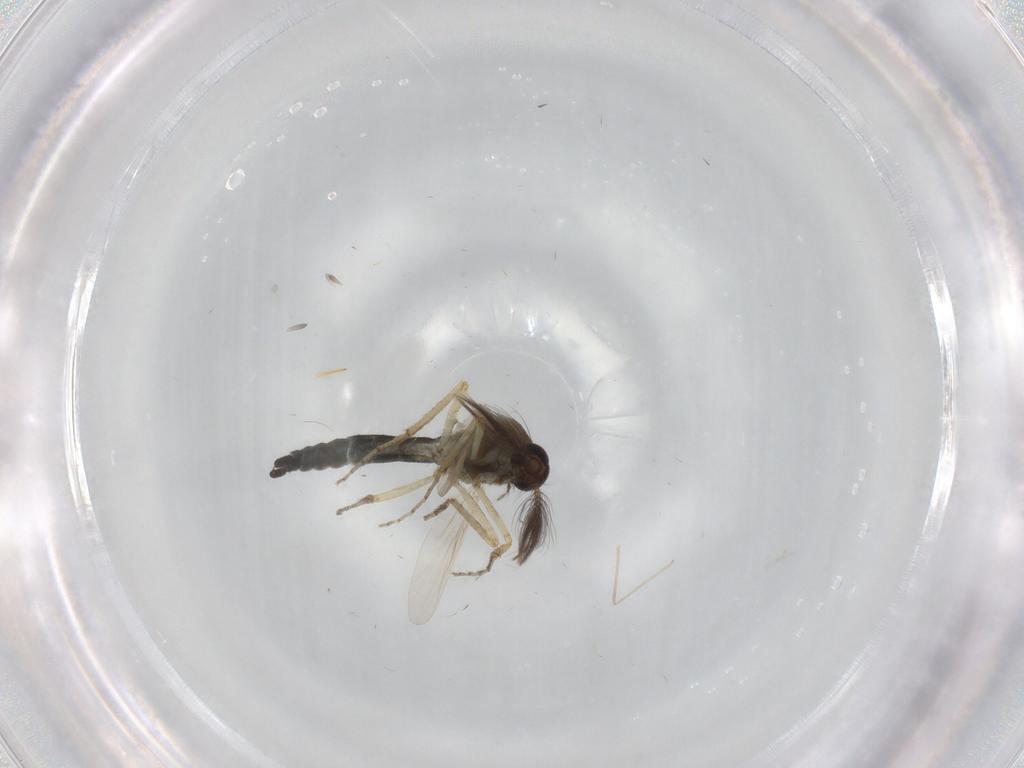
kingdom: Animalia
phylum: Arthropoda
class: Insecta
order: Diptera
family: Ceratopogonidae
